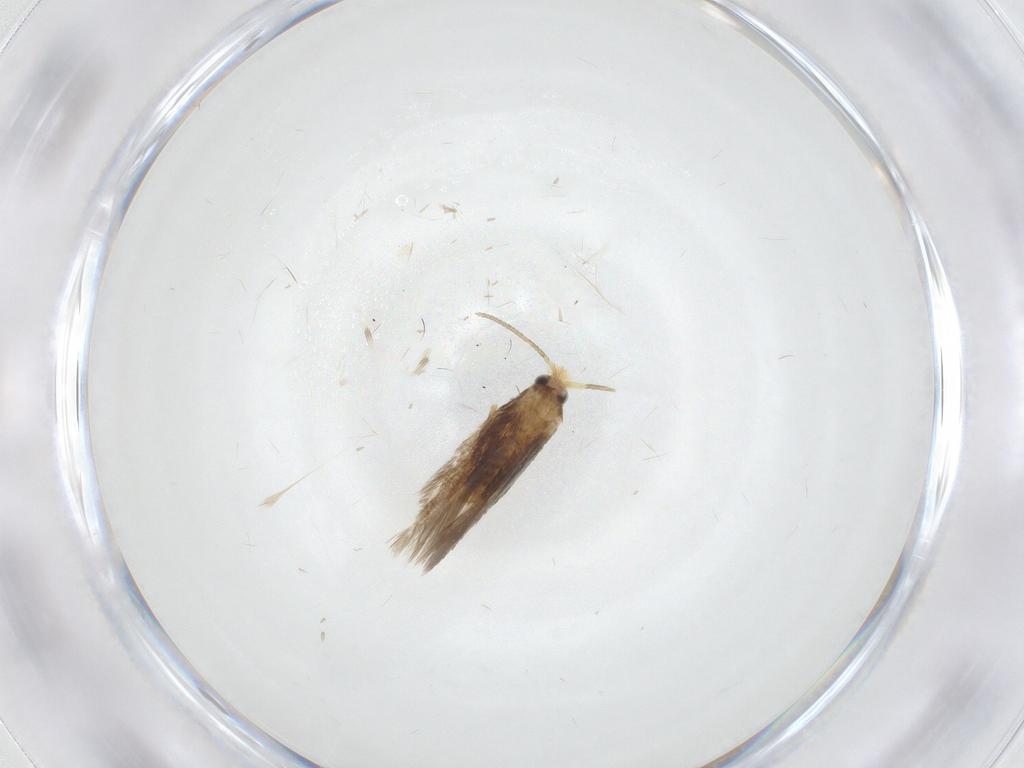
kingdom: Animalia
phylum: Arthropoda
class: Insecta
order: Lepidoptera
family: Nepticulidae
